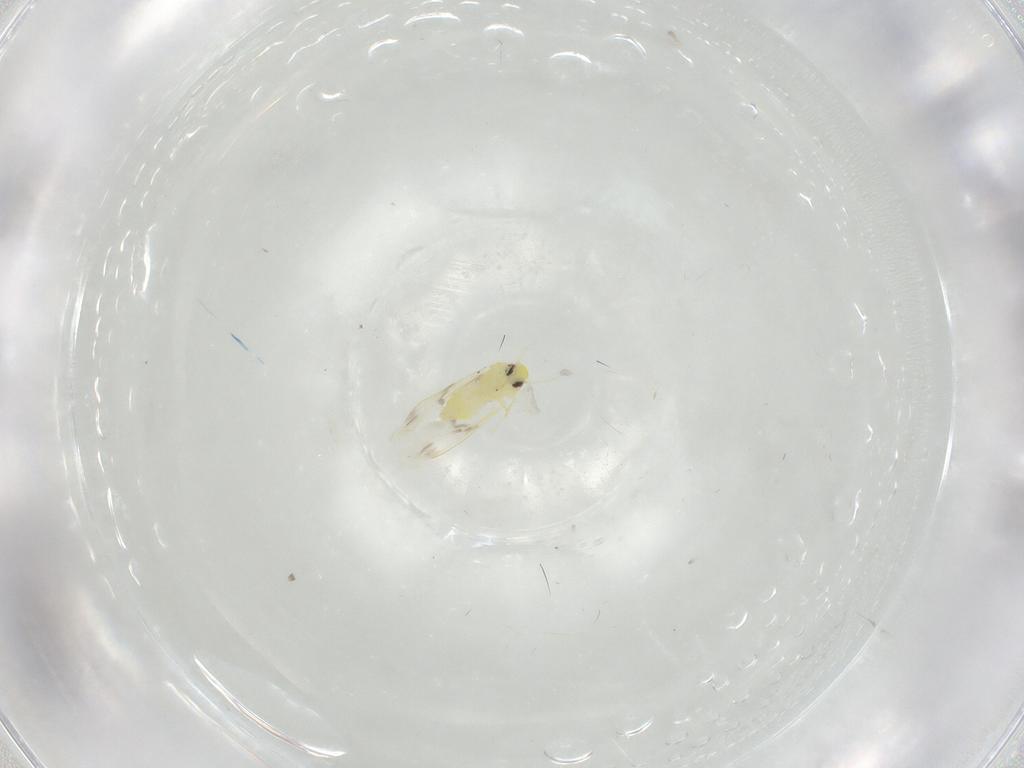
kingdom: Animalia
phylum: Arthropoda
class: Insecta
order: Hemiptera
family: Aleyrodidae
